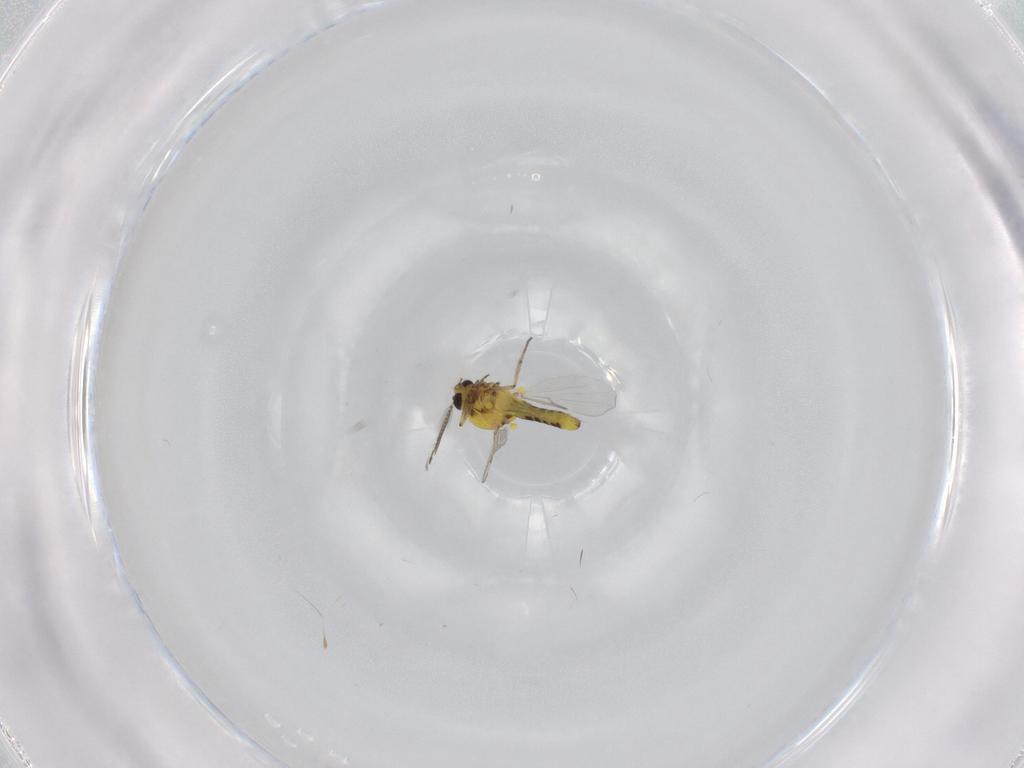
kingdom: Animalia
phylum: Arthropoda
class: Insecta
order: Diptera
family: Ceratopogonidae
